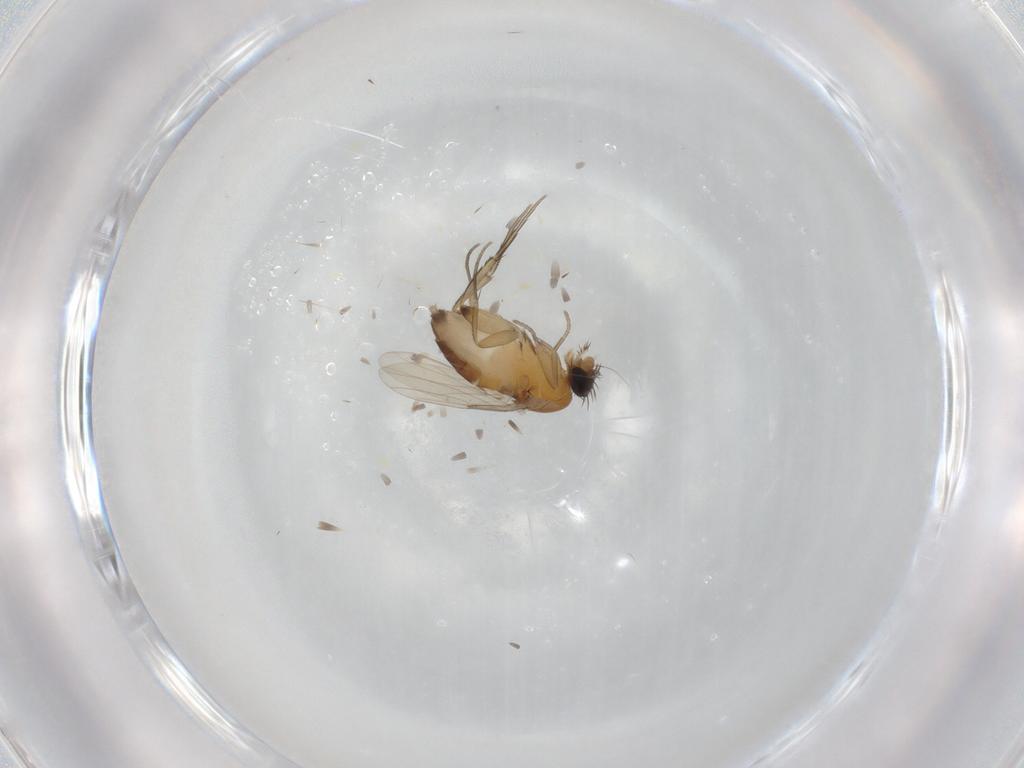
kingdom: Animalia
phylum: Arthropoda
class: Insecta
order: Diptera
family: Phoridae
